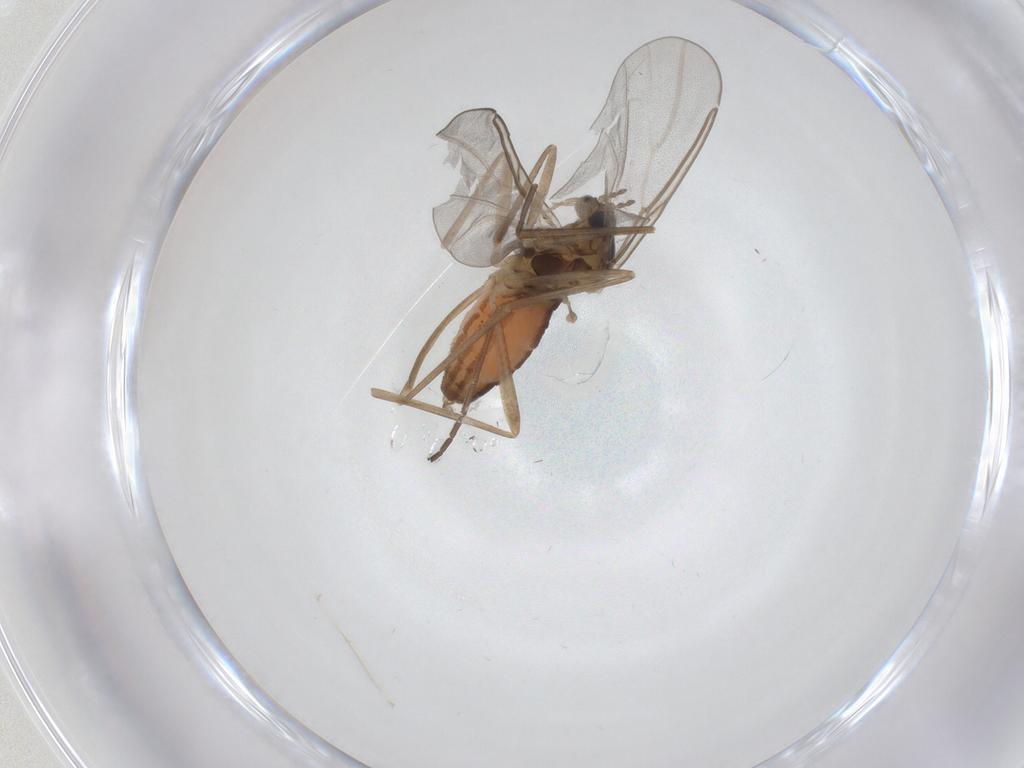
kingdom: Animalia
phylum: Arthropoda
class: Insecta
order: Diptera
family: Cecidomyiidae
